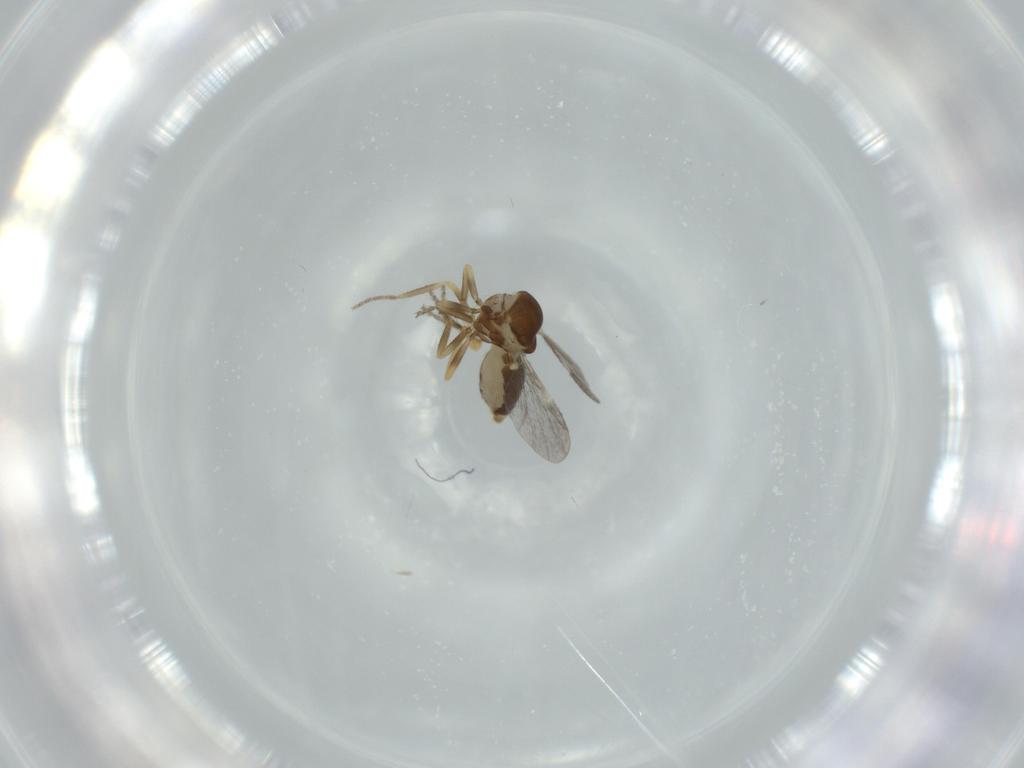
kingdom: Animalia
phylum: Arthropoda
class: Insecta
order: Diptera
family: Ceratopogonidae
